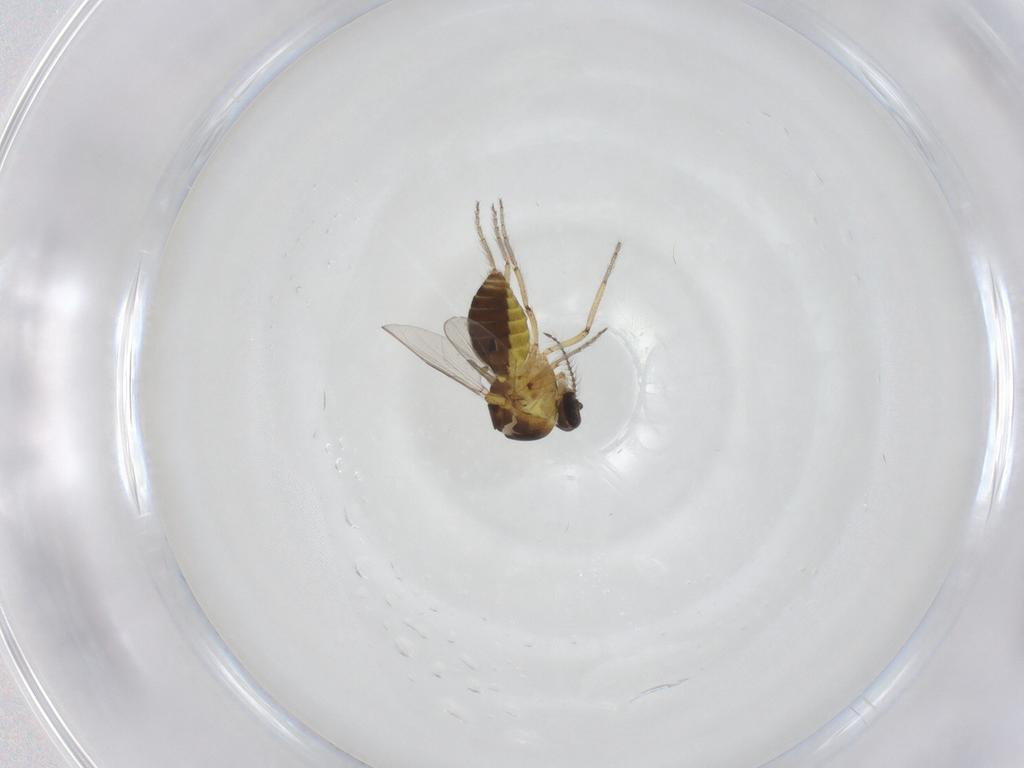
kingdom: Animalia
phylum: Arthropoda
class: Insecta
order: Diptera
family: Ceratopogonidae
